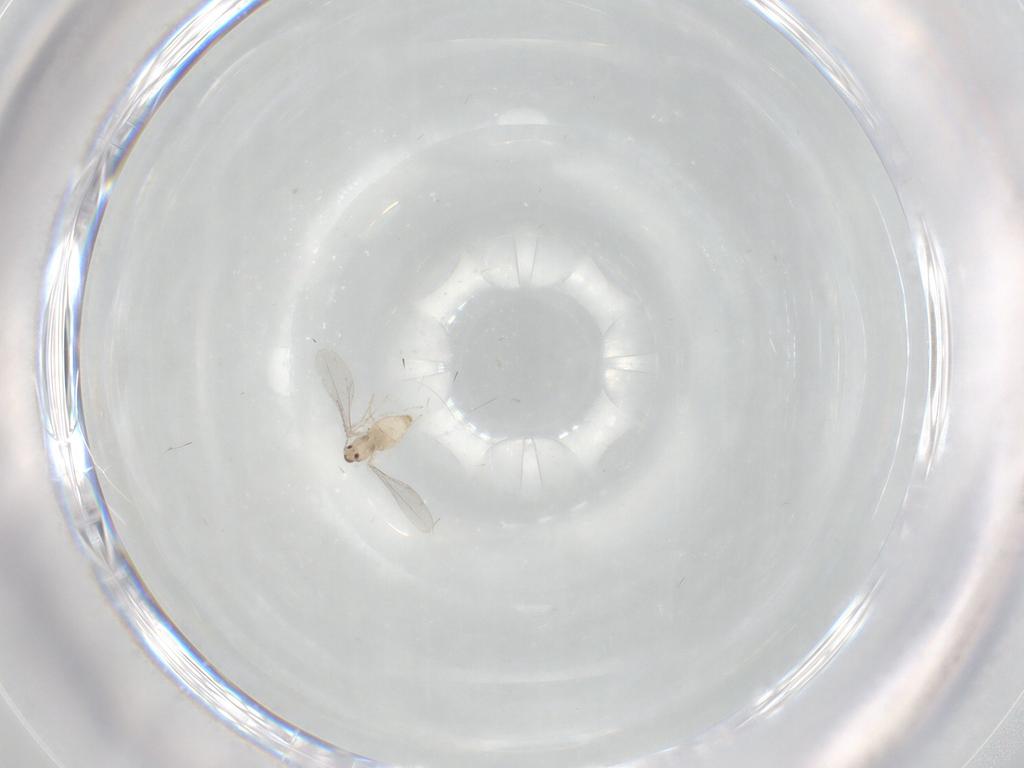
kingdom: Animalia
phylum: Arthropoda
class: Insecta
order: Diptera
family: Cecidomyiidae
